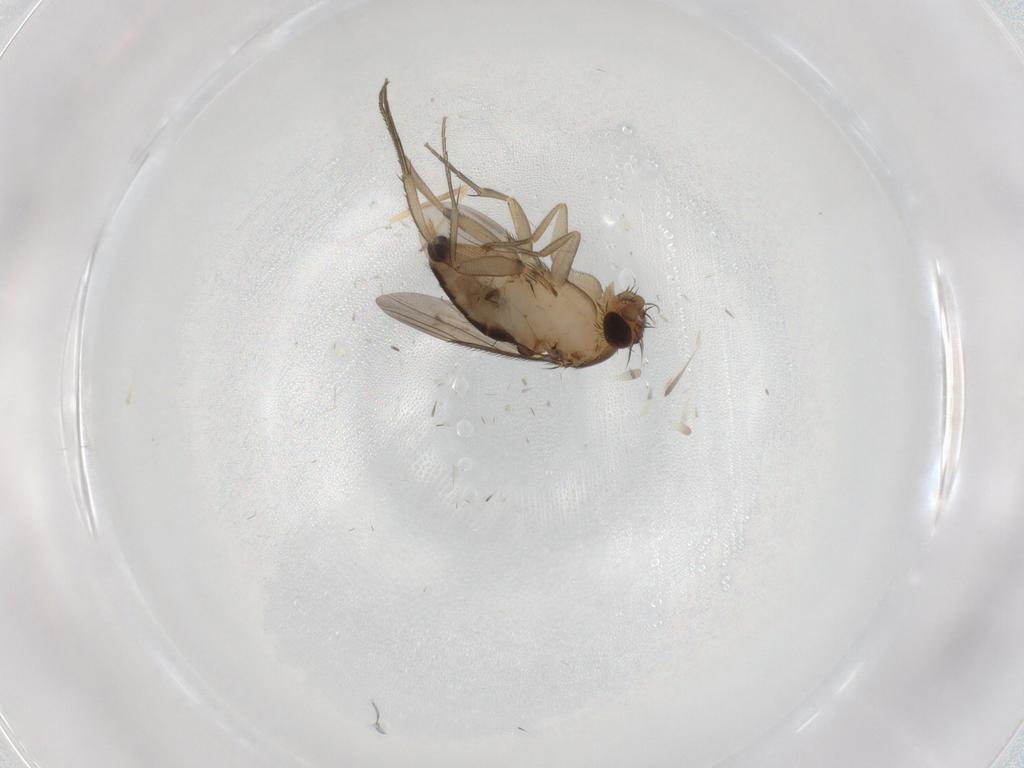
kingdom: Animalia
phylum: Arthropoda
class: Insecta
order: Diptera
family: Phoridae
